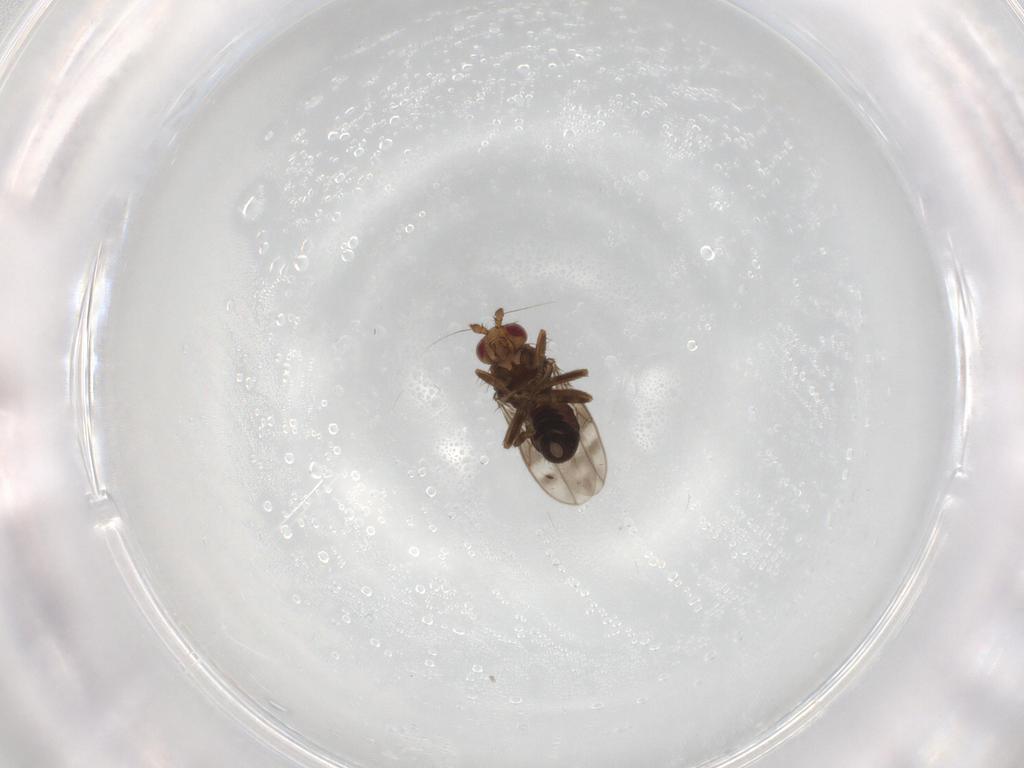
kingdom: Animalia
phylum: Arthropoda
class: Insecta
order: Diptera
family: Sphaeroceridae
